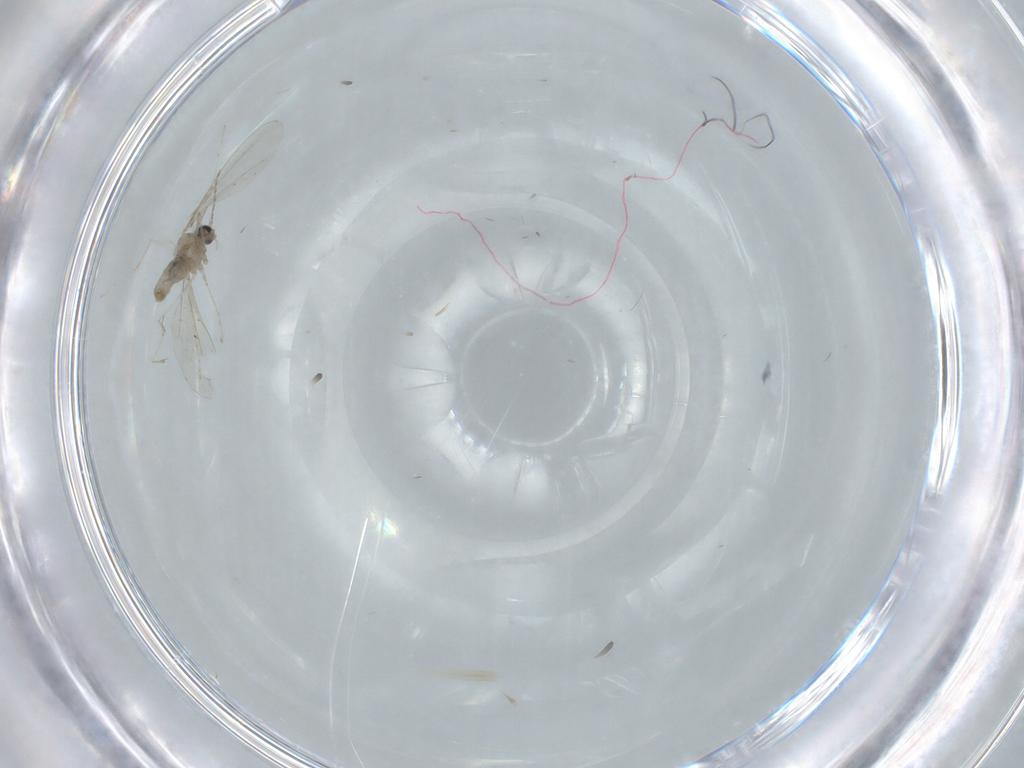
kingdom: Animalia
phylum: Arthropoda
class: Insecta
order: Diptera
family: Cecidomyiidae
